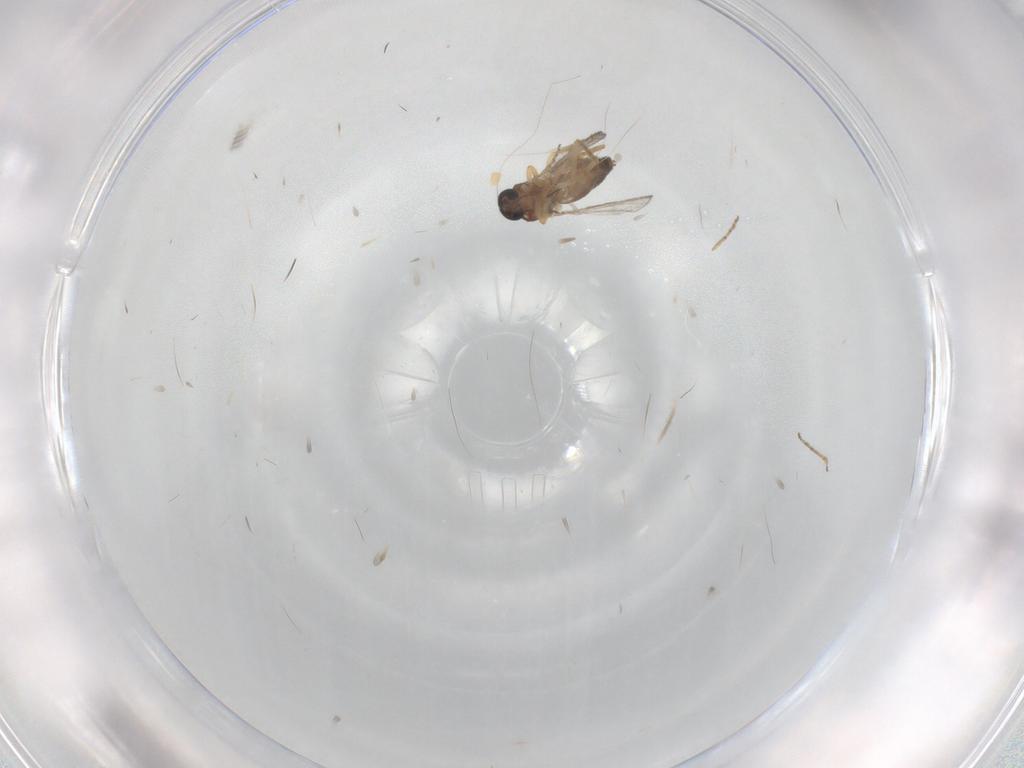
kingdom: Animalia
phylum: Arthropoda
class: Insecta
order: Diptera
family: Ceratopogonidae
